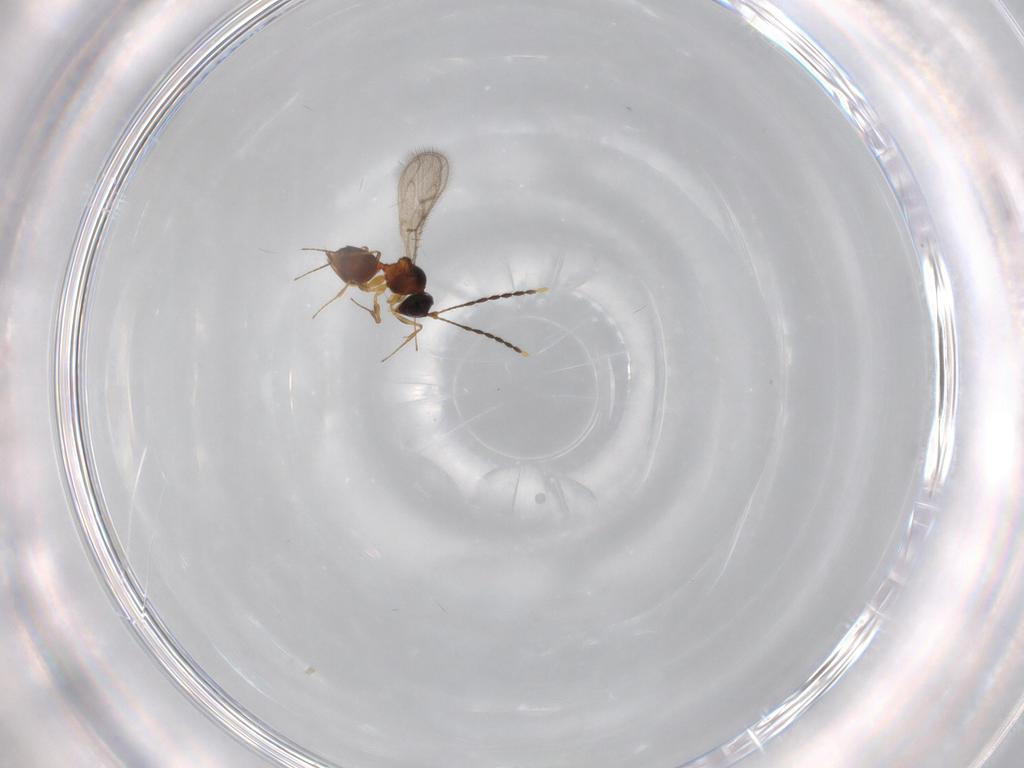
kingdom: Animalia
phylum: Arthropoda
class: Insecta
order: Hymenoptera
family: Figitidae
